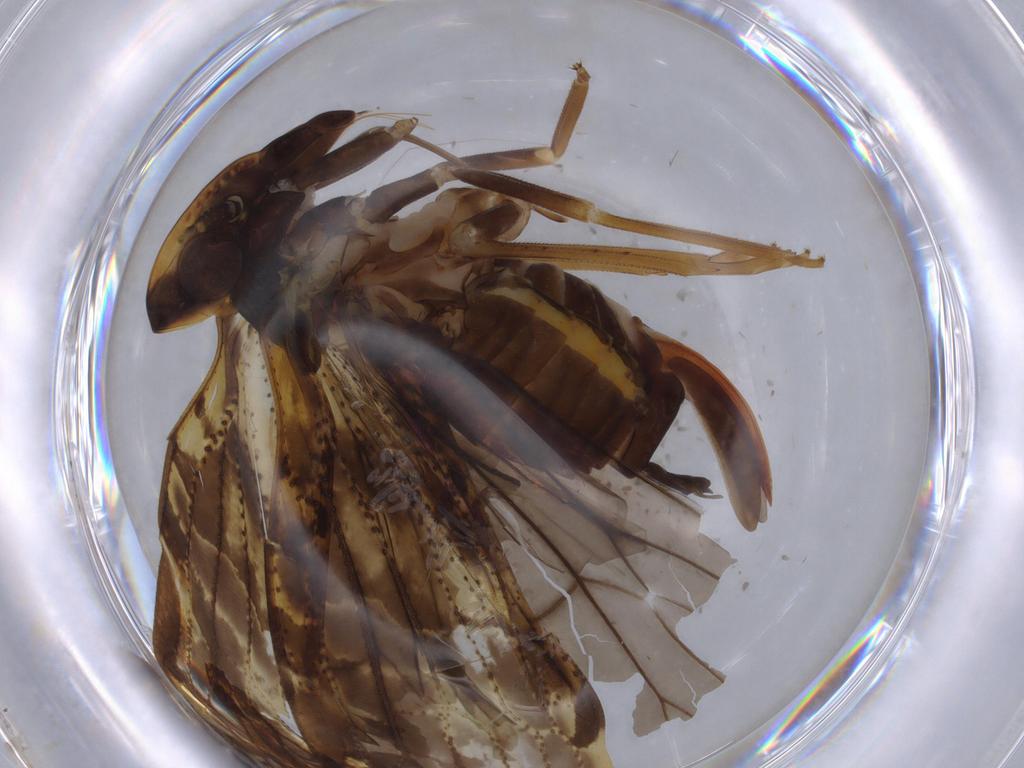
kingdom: Animalia
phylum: Arthropoda
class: Insecta
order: Hemiptera
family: Cixiidae
